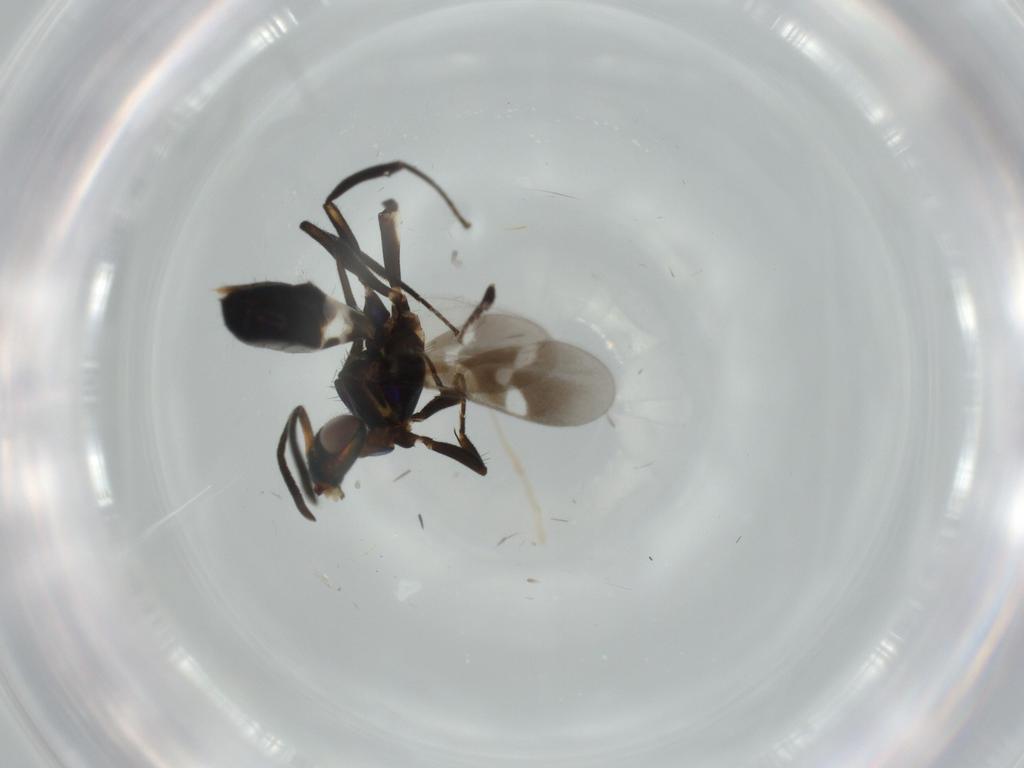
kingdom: Animalia
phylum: Arthropoda
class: Insecta
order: Hymenoptera
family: Eupelmidae
